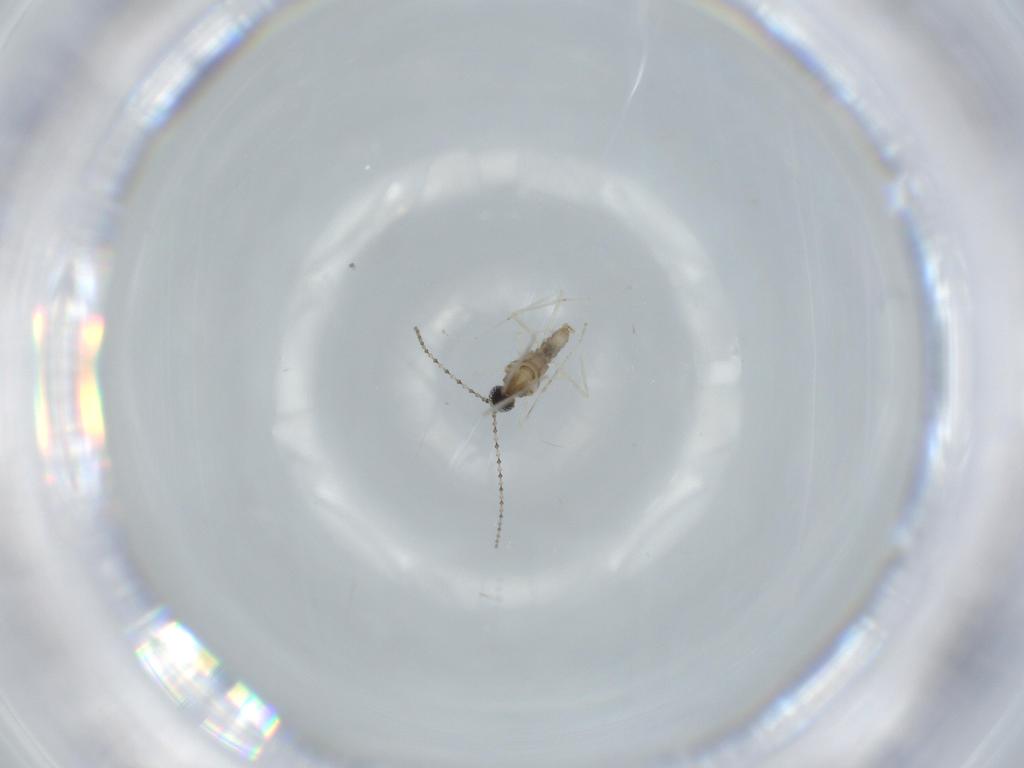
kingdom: Animalia
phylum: Arthropoda
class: Insecta
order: Diptera
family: Cecidomyiidae
